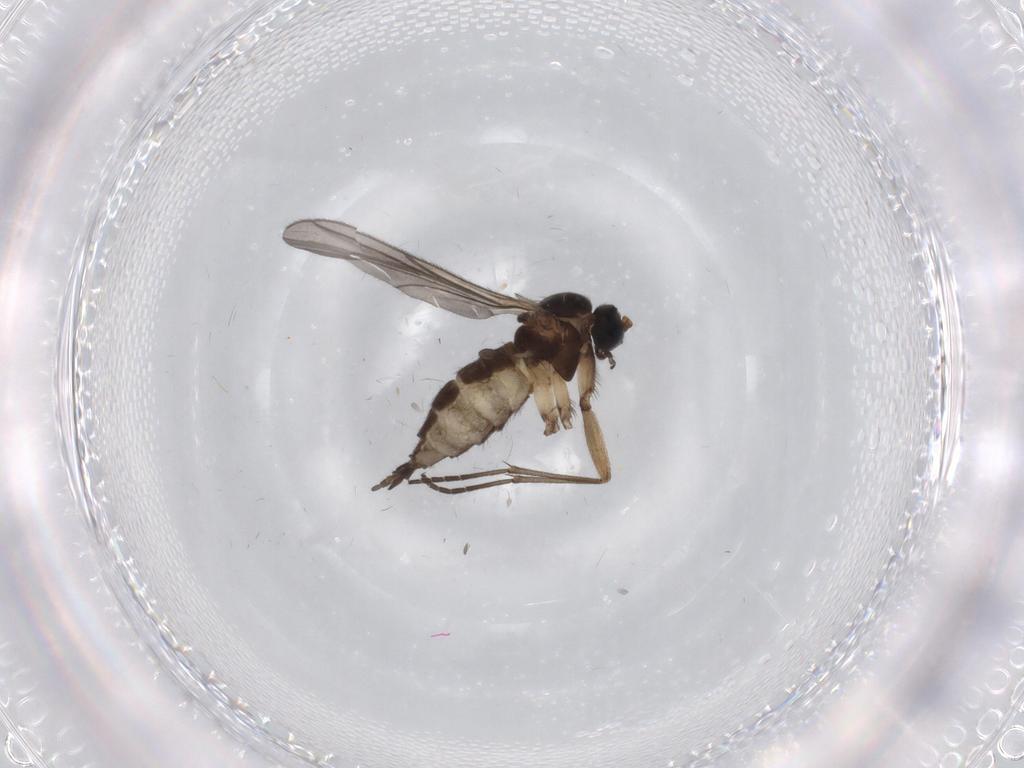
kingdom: Animalia
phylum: Arthropoda
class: Insecta
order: Diptera
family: Sciaridae
